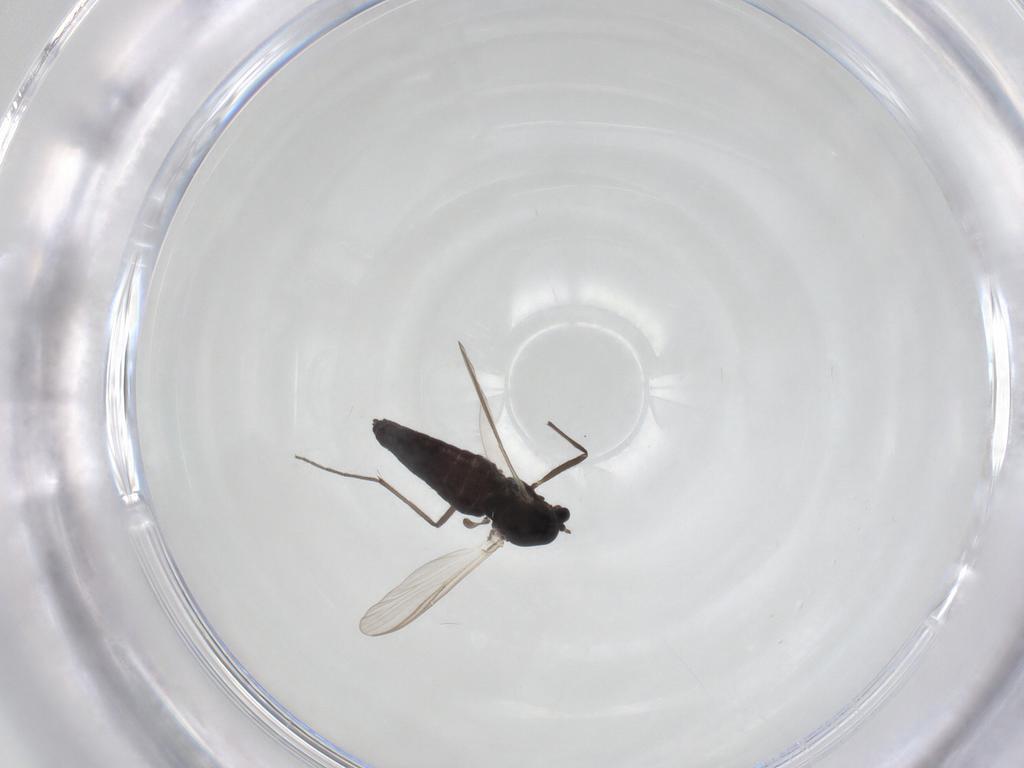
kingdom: Animalia
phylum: Arthropoda
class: Insecta
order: Diptera
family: Chironomidae
